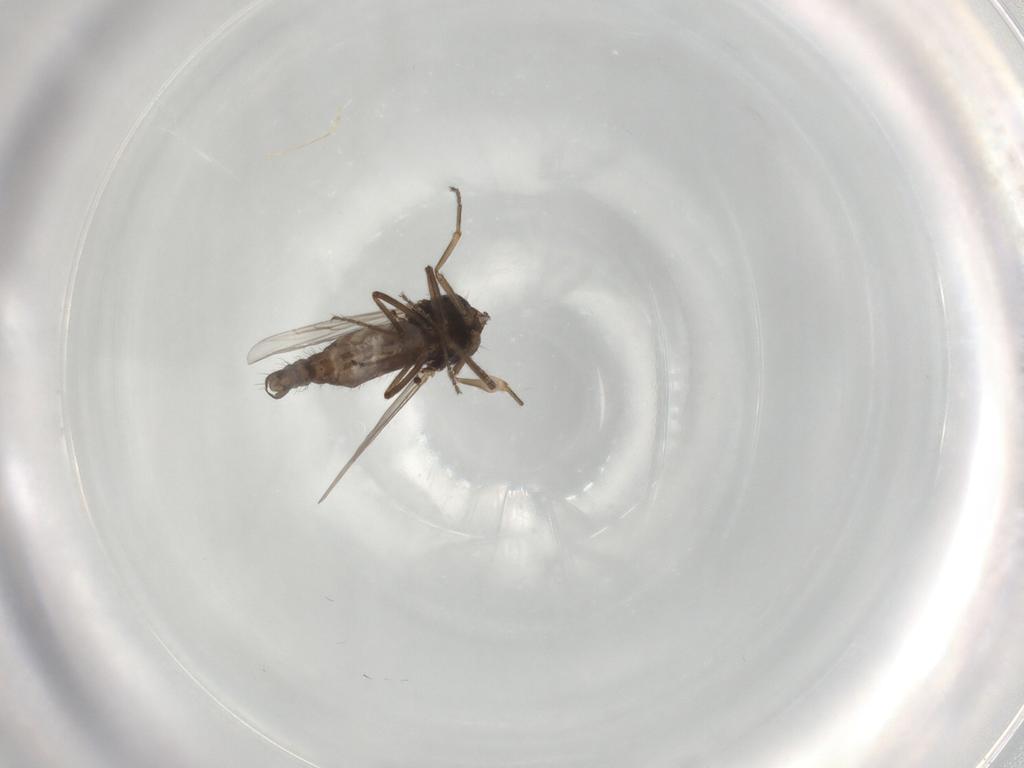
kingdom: Animalia
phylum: Arthropoda
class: Insecta
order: Diptera
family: Ceratopogonidae
